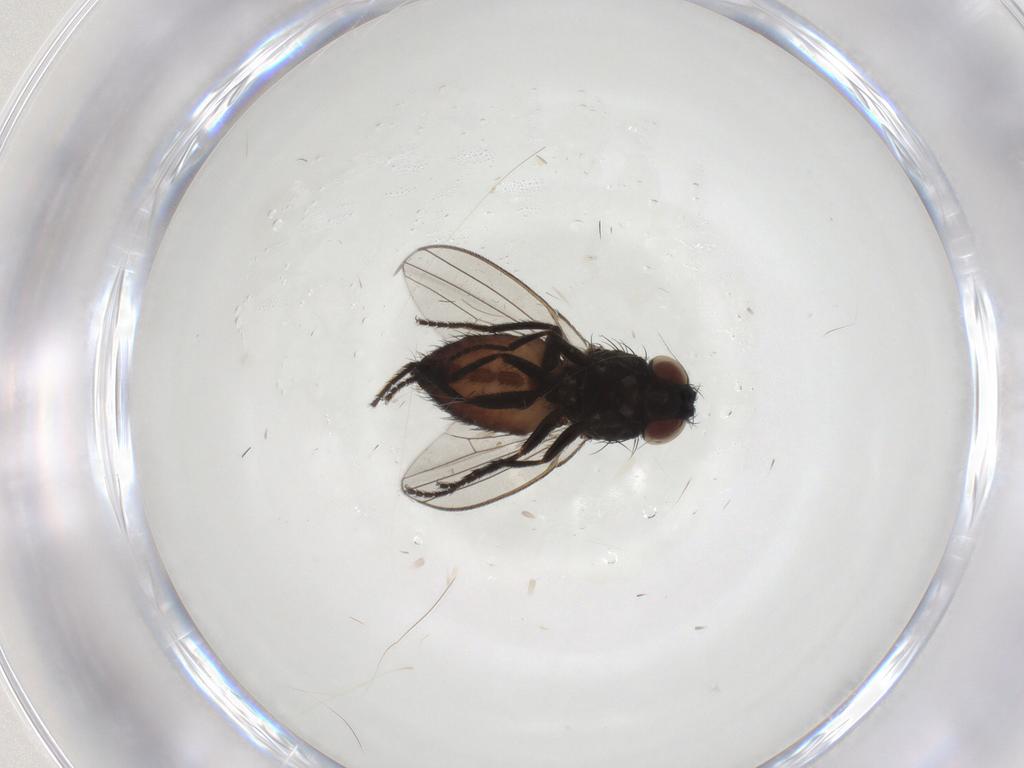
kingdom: Animalia
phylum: Arthropoda
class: Insecta
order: Diptera
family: Milichiidae
